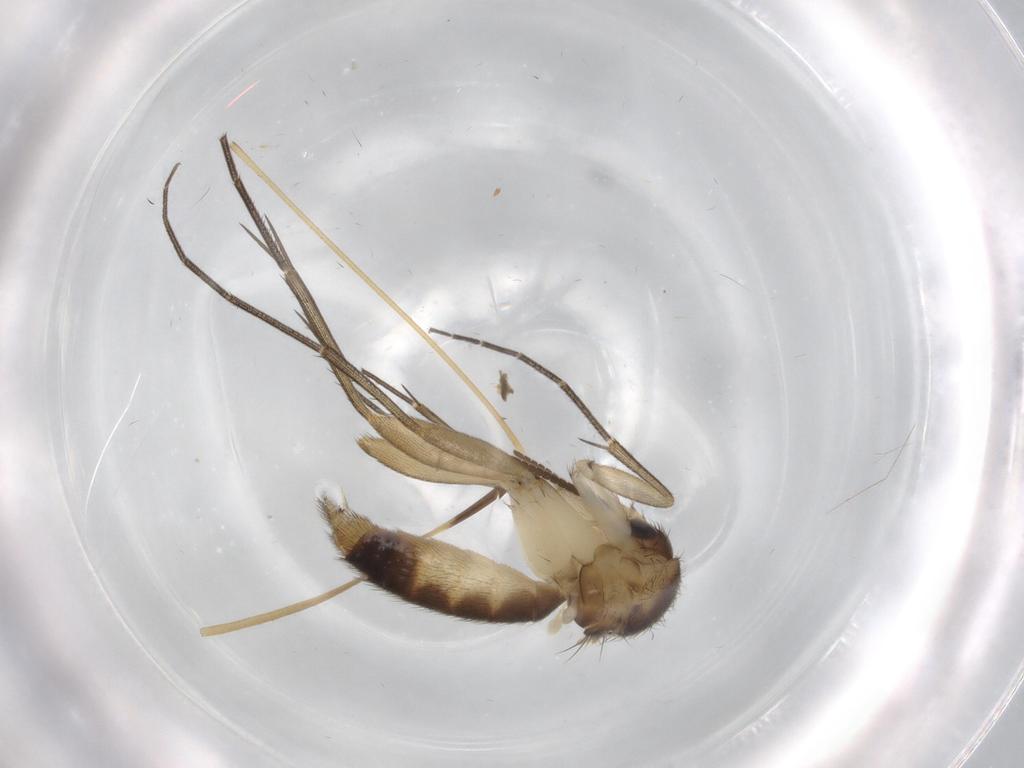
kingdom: Animalia
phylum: Arthropoda
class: Insecta
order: Diptera
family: Limoniidae
